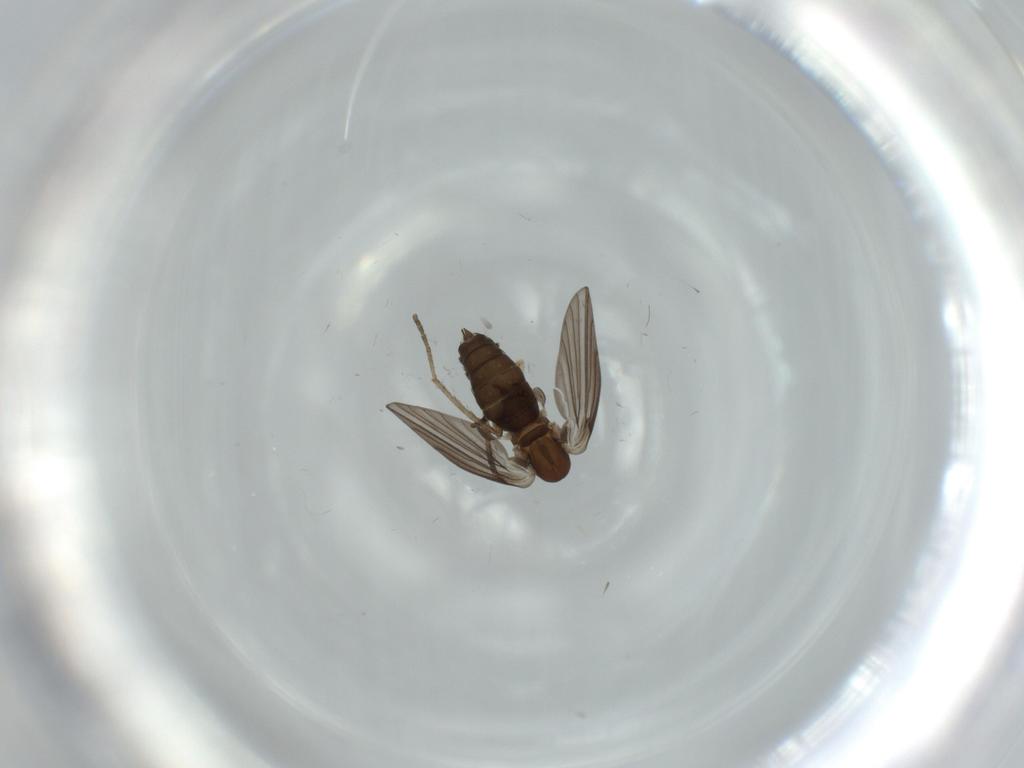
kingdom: Animalia
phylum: Arthropoda
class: Insecta
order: Diptera
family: Psychodidae
